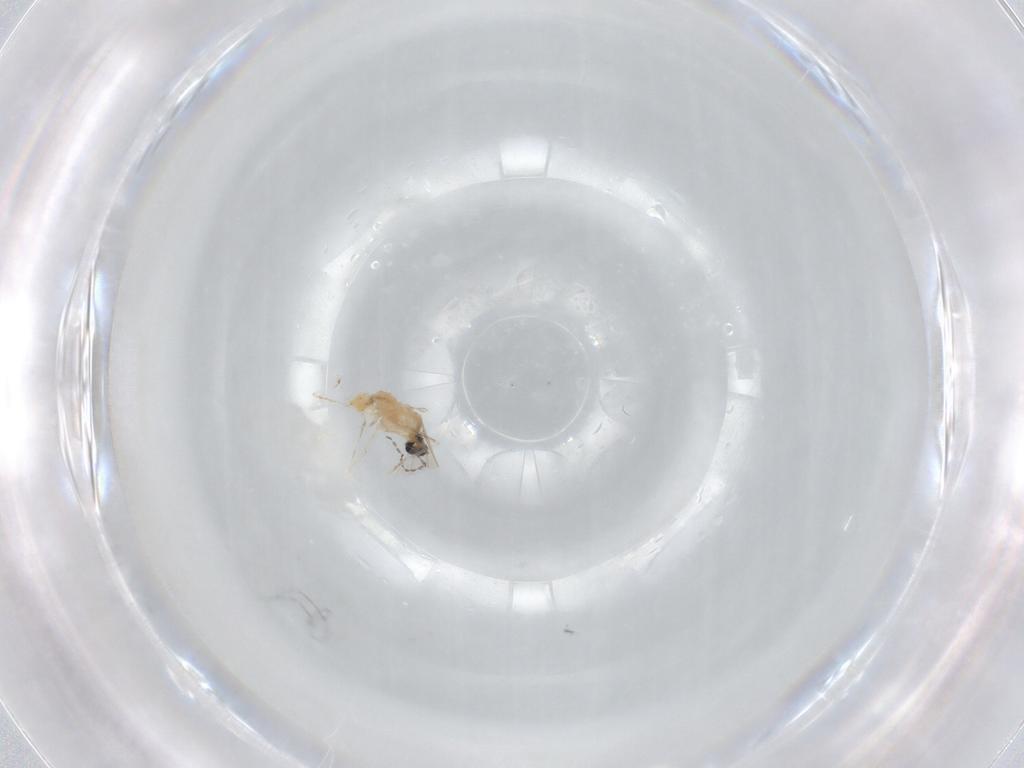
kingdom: Animalia
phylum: Arthropoda
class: Insecta
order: Diptera
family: Cecidomyiidae
